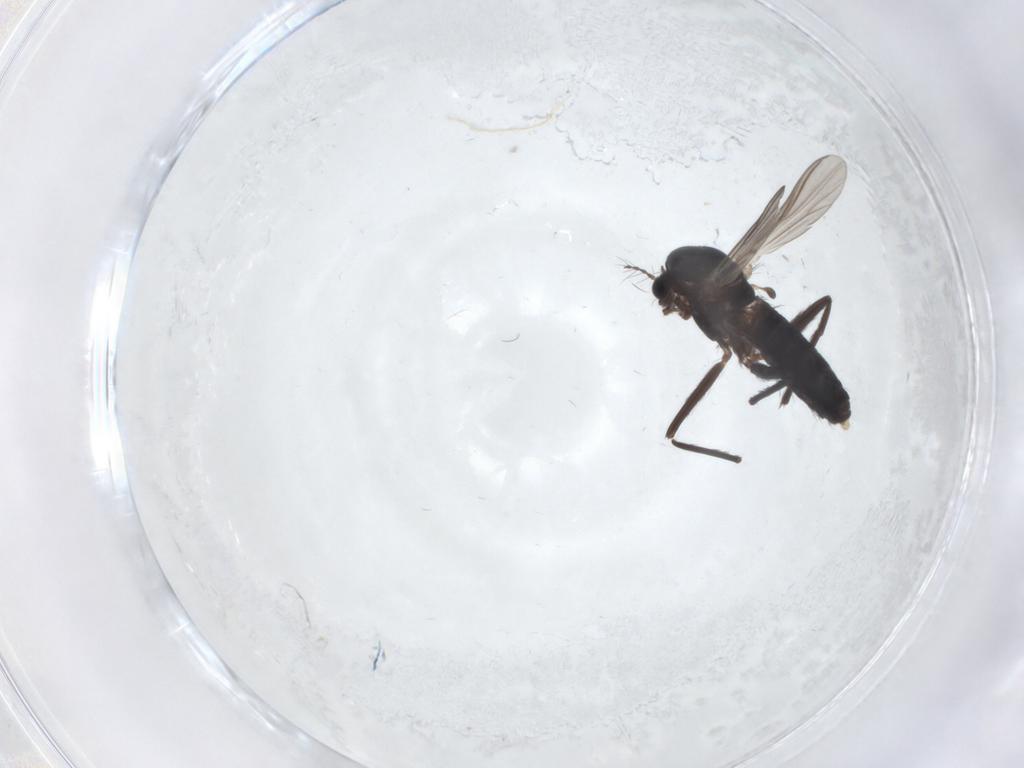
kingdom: Animalia
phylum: Arthropoda
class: Insecta
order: Diptera
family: Chironomidae
